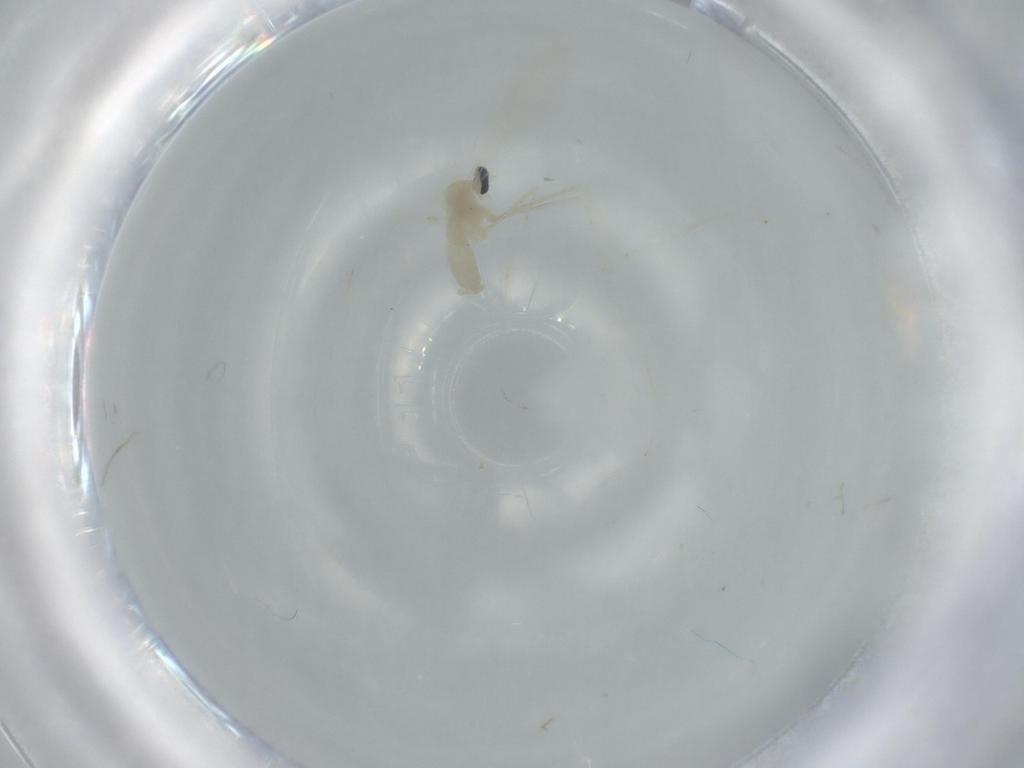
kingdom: Animalia
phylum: Arthropoda
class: Insecta
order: Diptera
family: Cecidomyiidae
